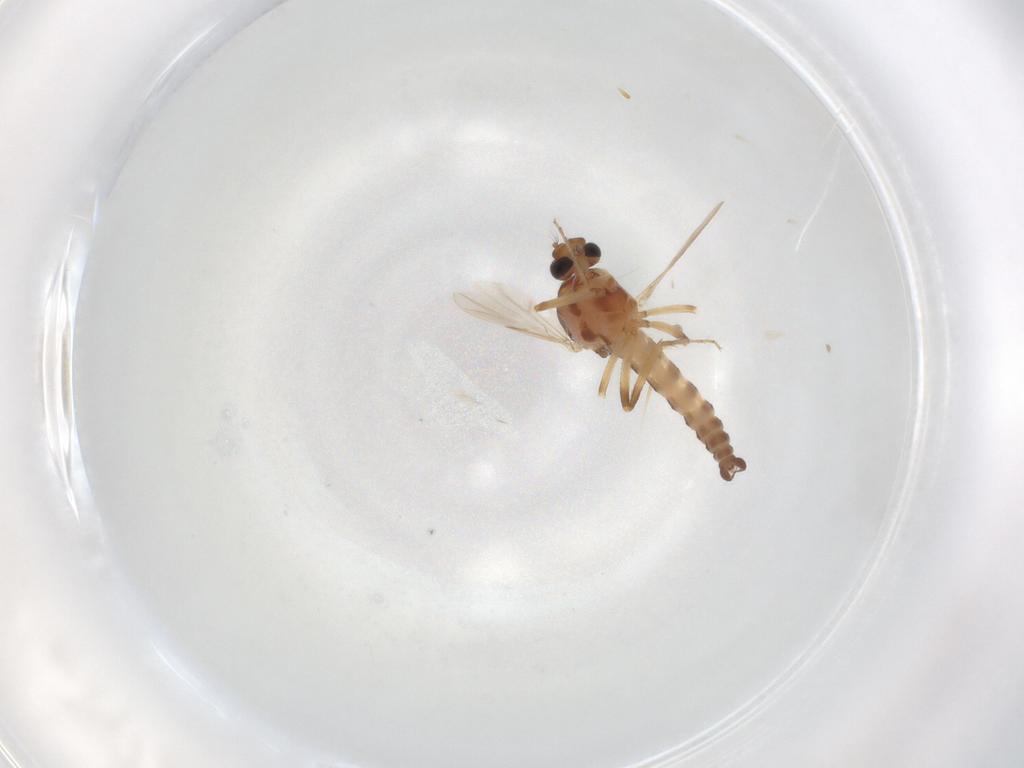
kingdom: Animalia
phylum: Arthropoda
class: Insecta
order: Diptera
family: Cecidomyiidae
